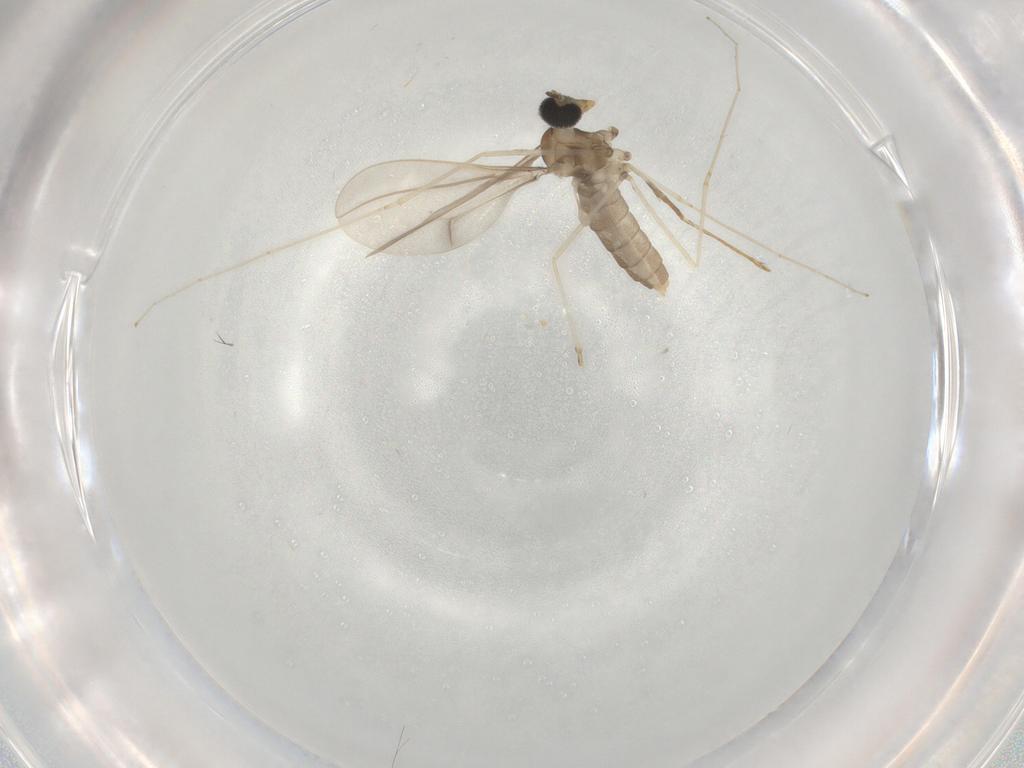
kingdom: Animalia
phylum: Arthropoda
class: Insecta
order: Diptera
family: Cecidomyiidae
